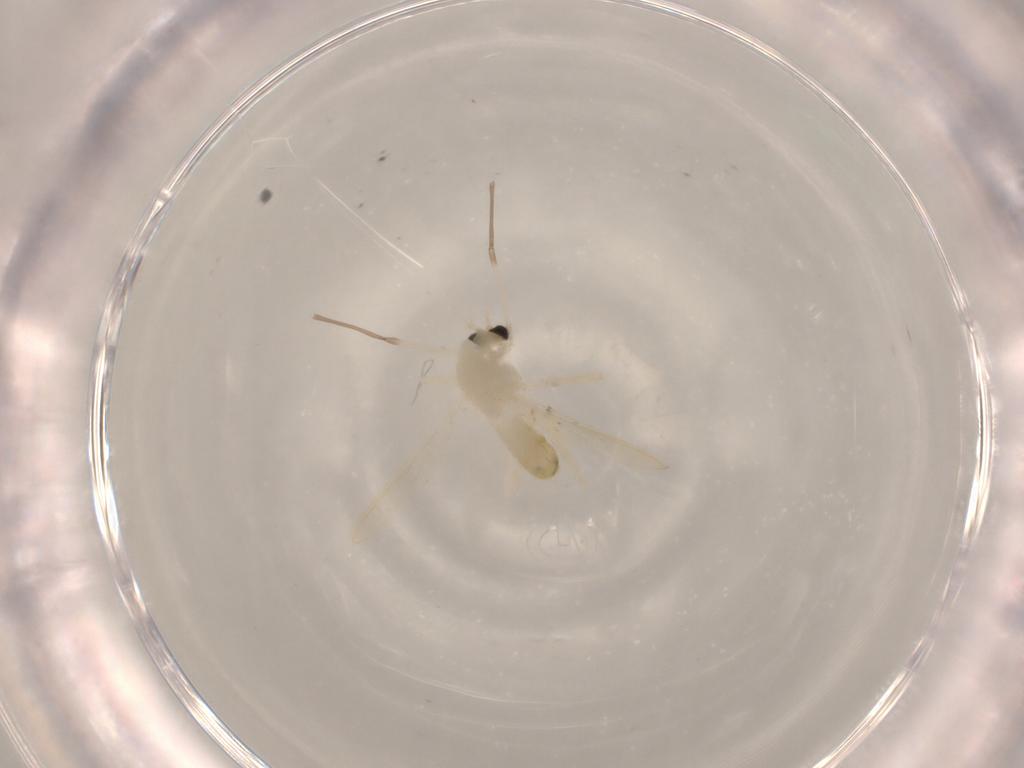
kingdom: Animalia
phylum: Arthropoda
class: Insecta
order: Diptera
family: Chironomidae
